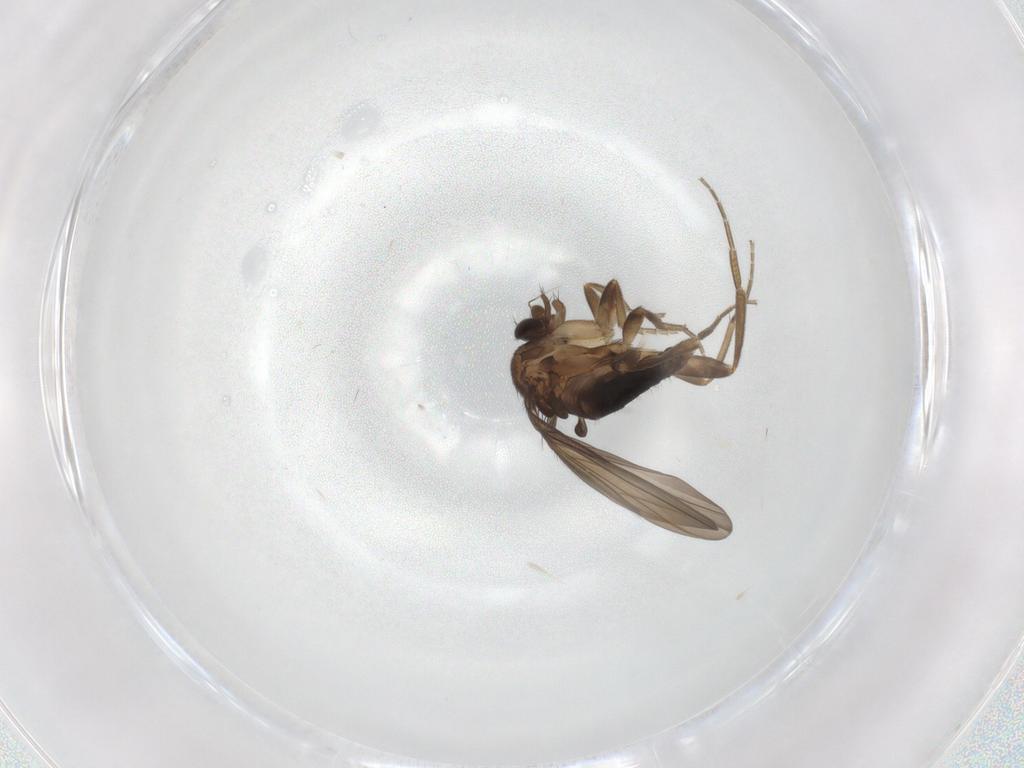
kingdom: Animalia
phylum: Arthropoda
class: Insecta
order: Diptera
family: Phoridae
